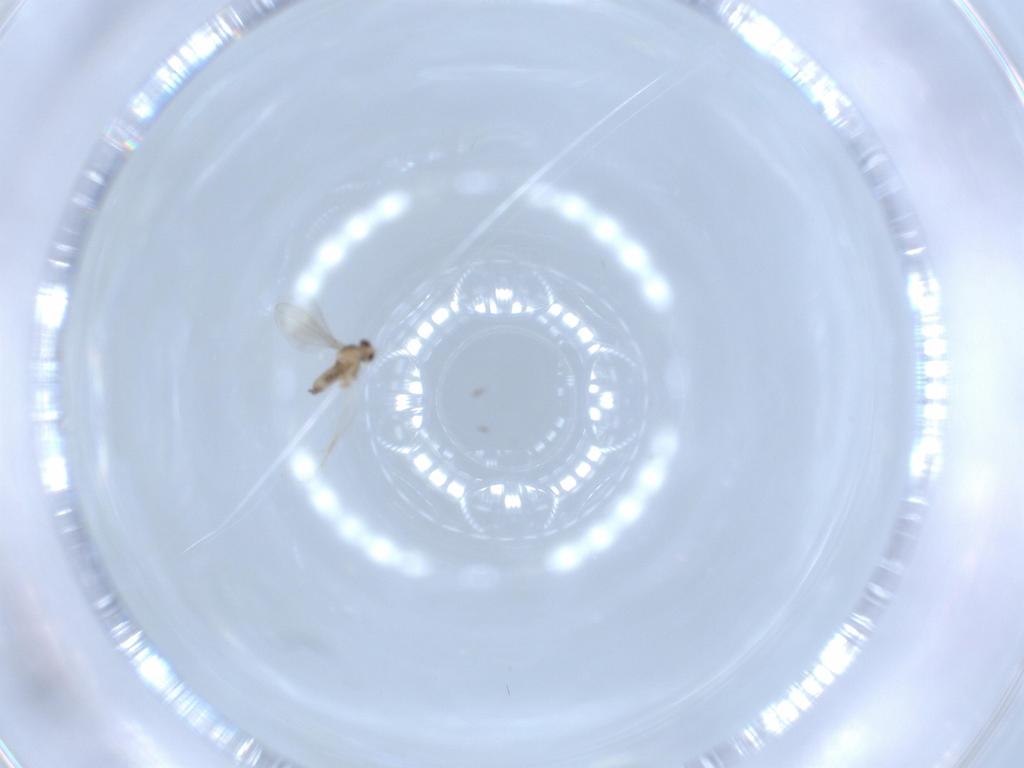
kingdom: Animalia
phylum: Arthropoda
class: Insecta
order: Diptera
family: Cecidomyiidae
